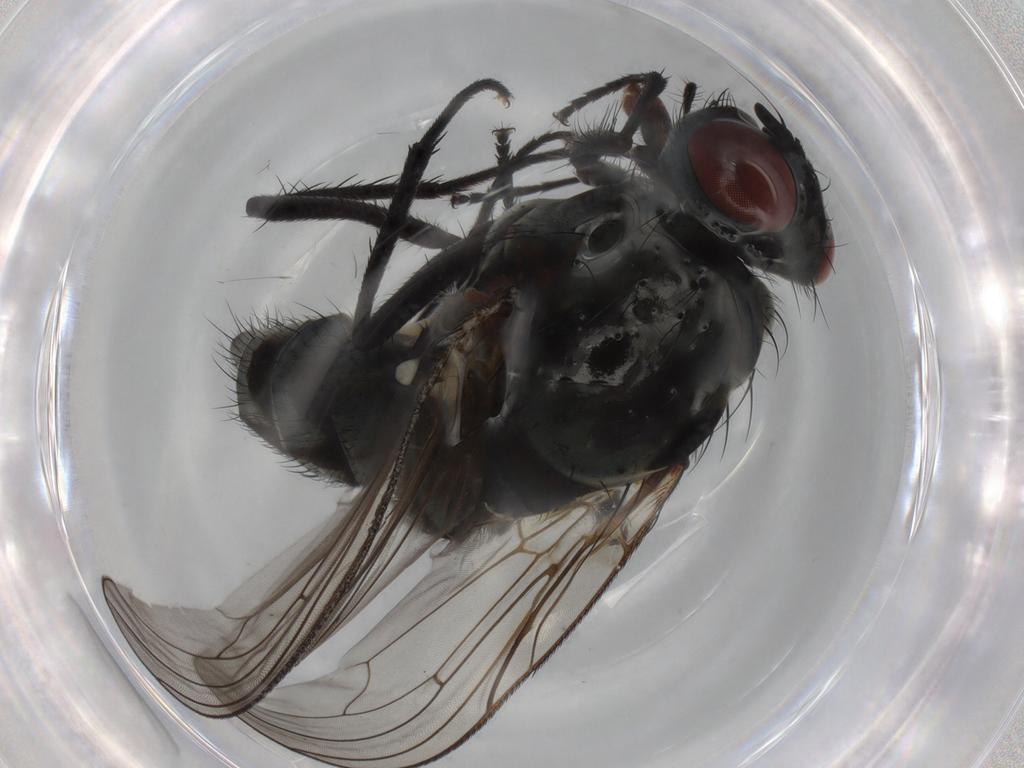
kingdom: Animalia
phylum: Arthropoda
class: Insecta
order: Diptera
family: Anthomyiidae
